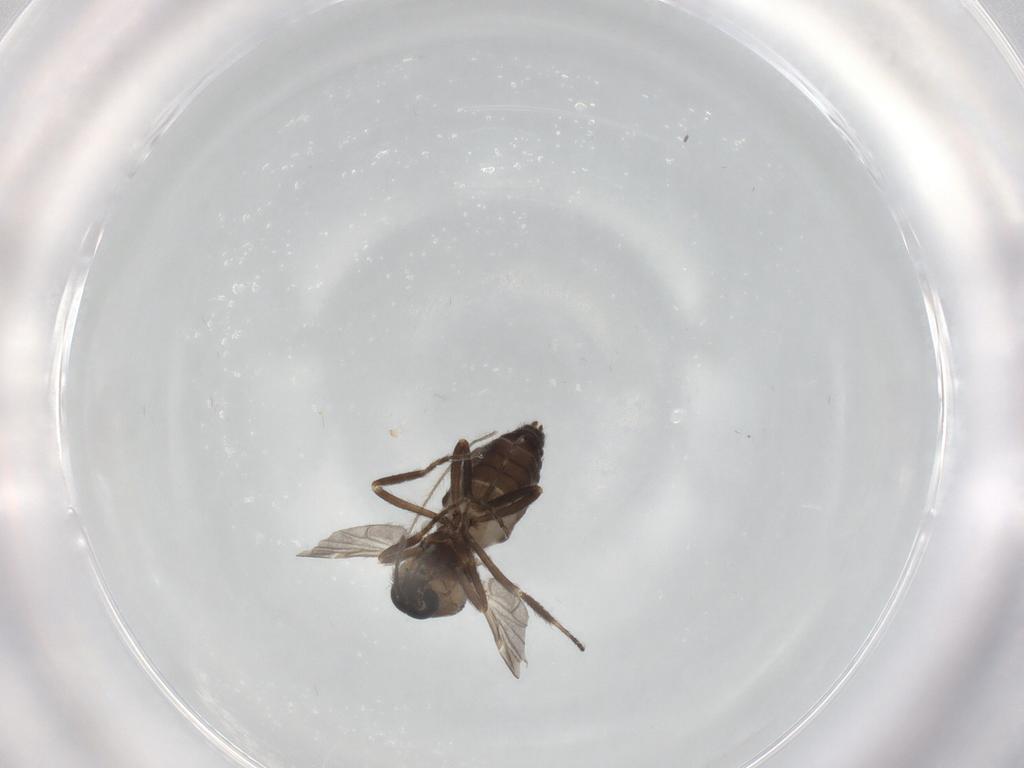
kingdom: Animalia
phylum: Arthropoda
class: Insecta
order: Diptera
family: Ceratopogonidae
